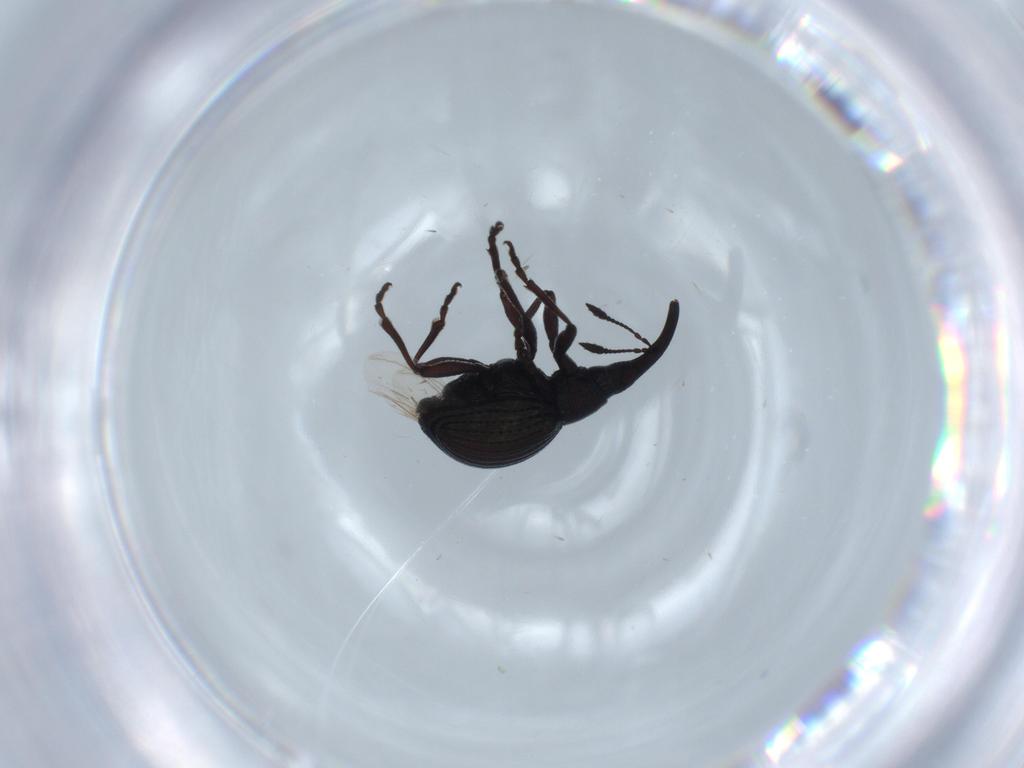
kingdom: Animalia
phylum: Arthropoda
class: Insecta
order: Coleoptera
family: Brentidae
